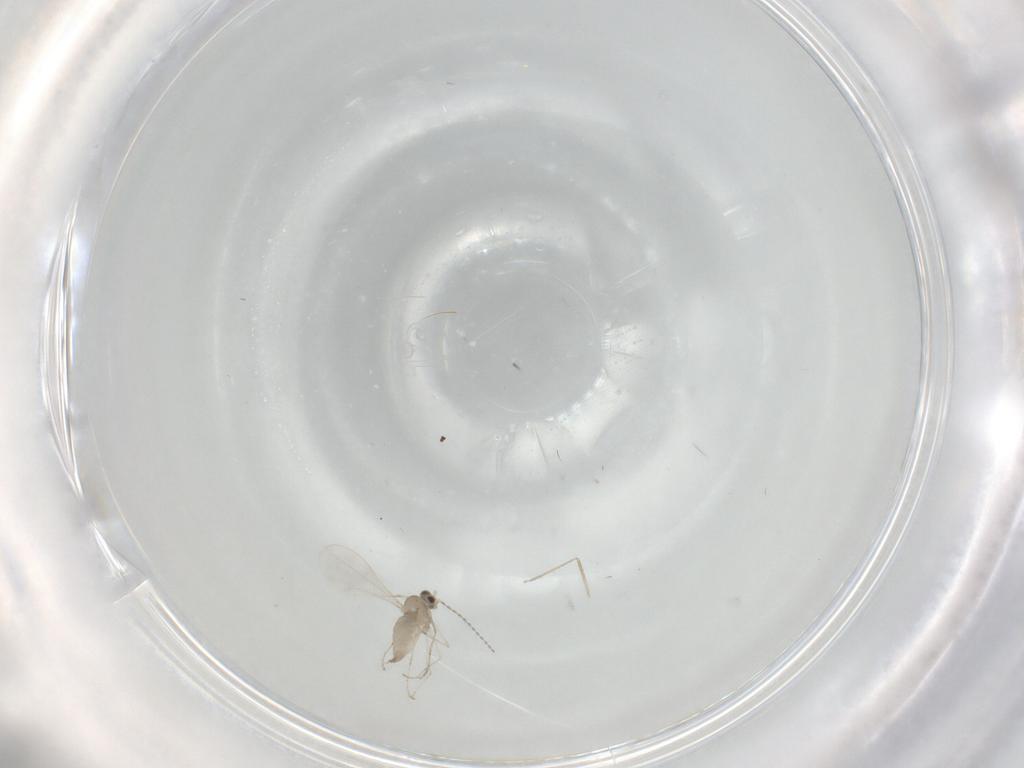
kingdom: Animalia
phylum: Arthropoda
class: Insecta
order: Diptera
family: Cecidomyiidae
